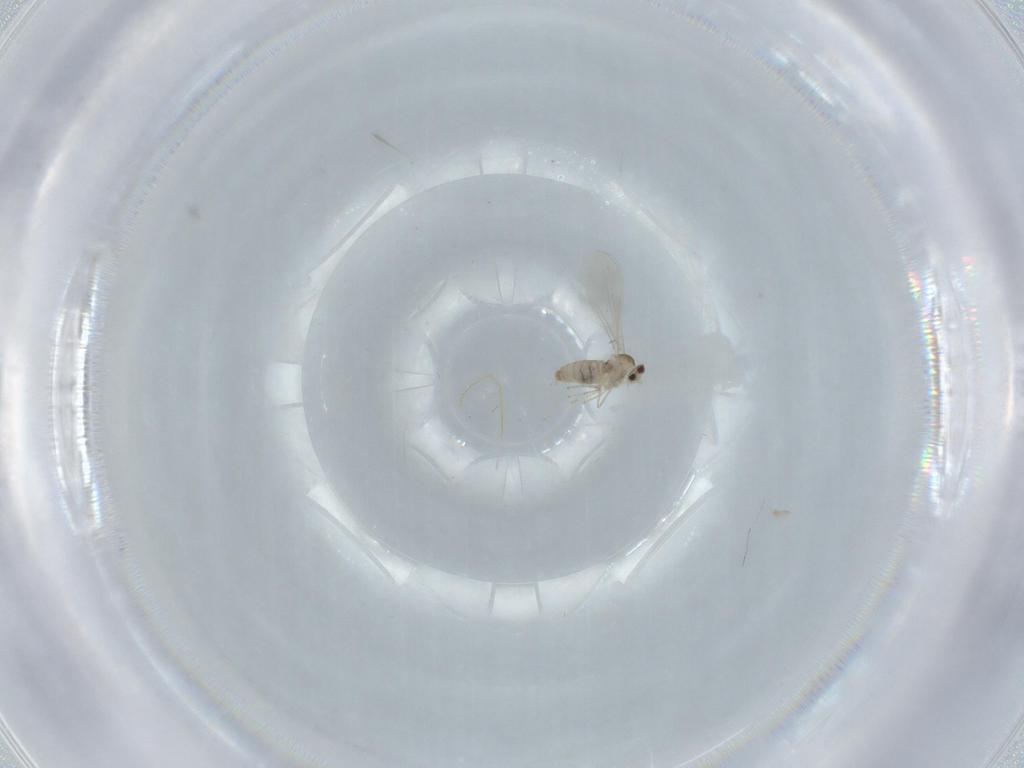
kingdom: Animalia
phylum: Arthropoda
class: Insecta
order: Diptera
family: Cecidomyiidae
